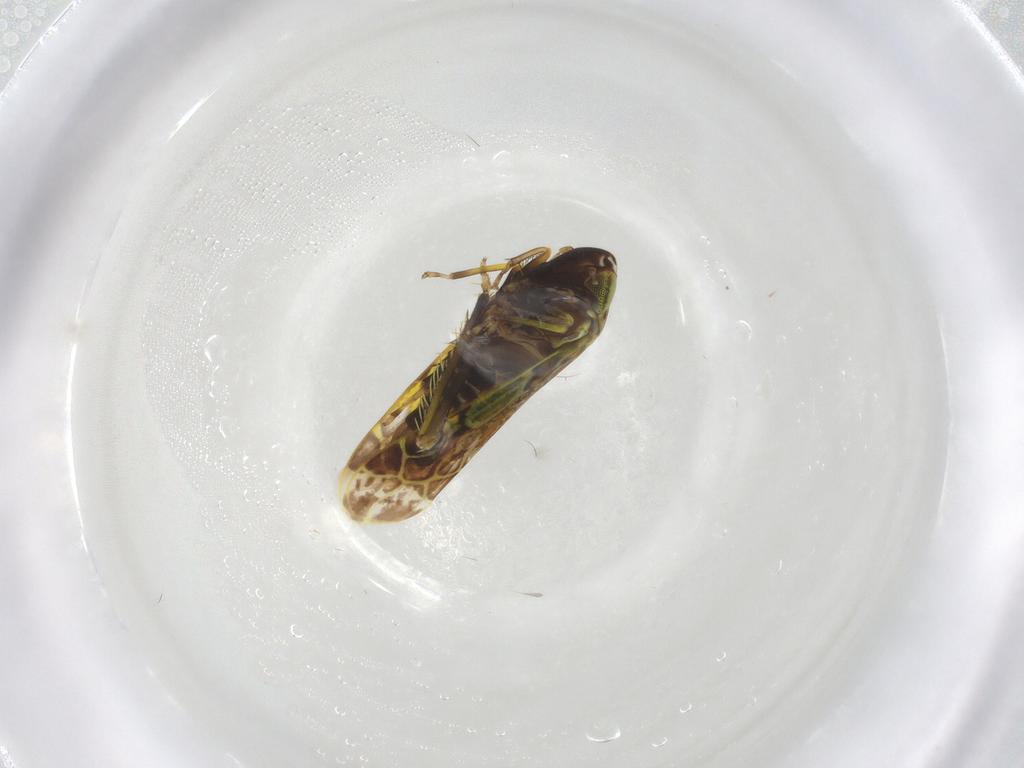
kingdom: Animalia
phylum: Arthropoda
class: Insecta
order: Hemiptera
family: Cicadellidae
